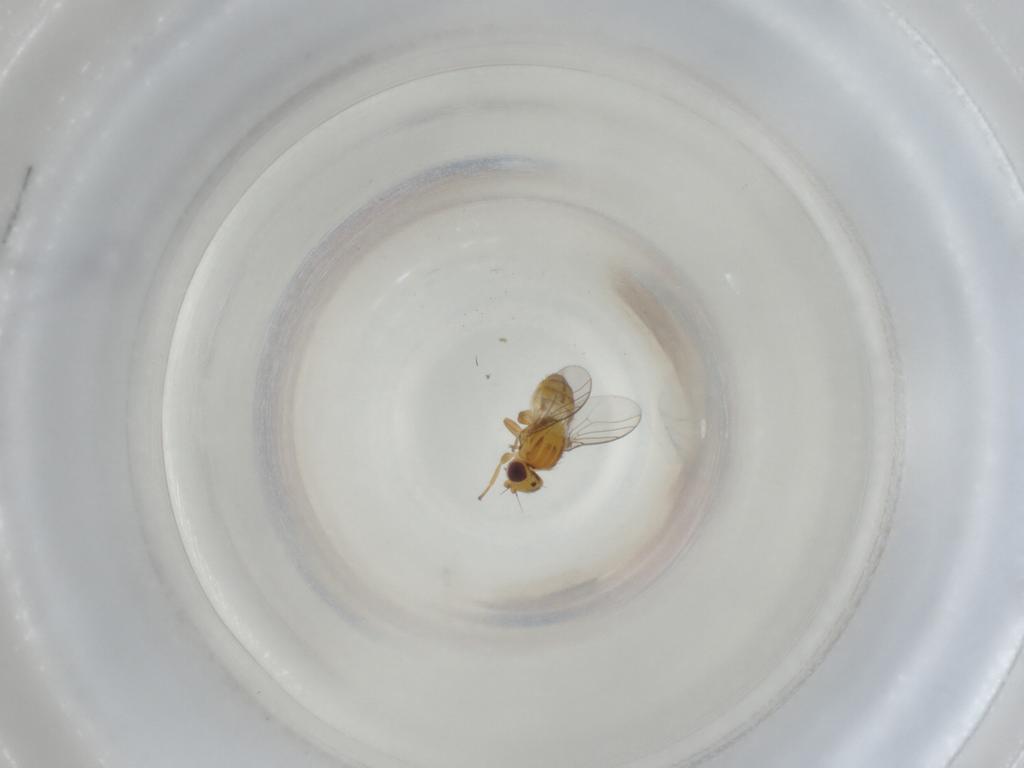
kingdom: Animalia
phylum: Arthropoda
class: Insecta
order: Diptera
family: Chloropidae
